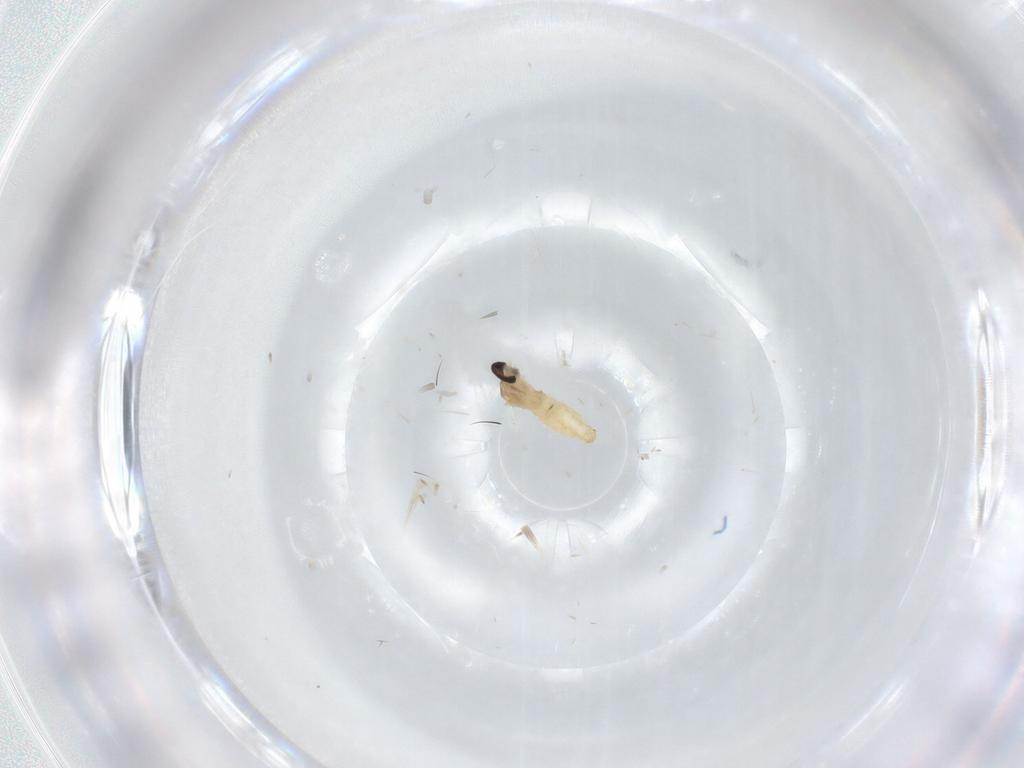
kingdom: Animalia
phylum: Arthropoda
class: Insecta
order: Diptera
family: Cecidomyiidae
